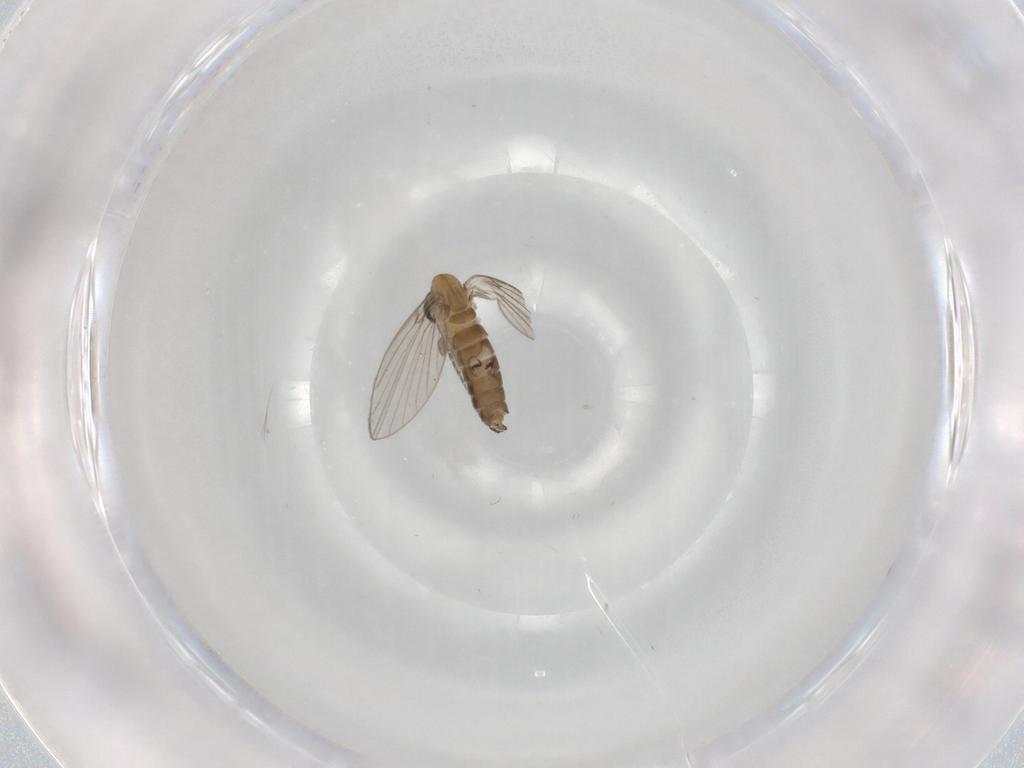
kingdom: Animalia
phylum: Arthropoda
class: Insecta
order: Diptera
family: Psychodidae
